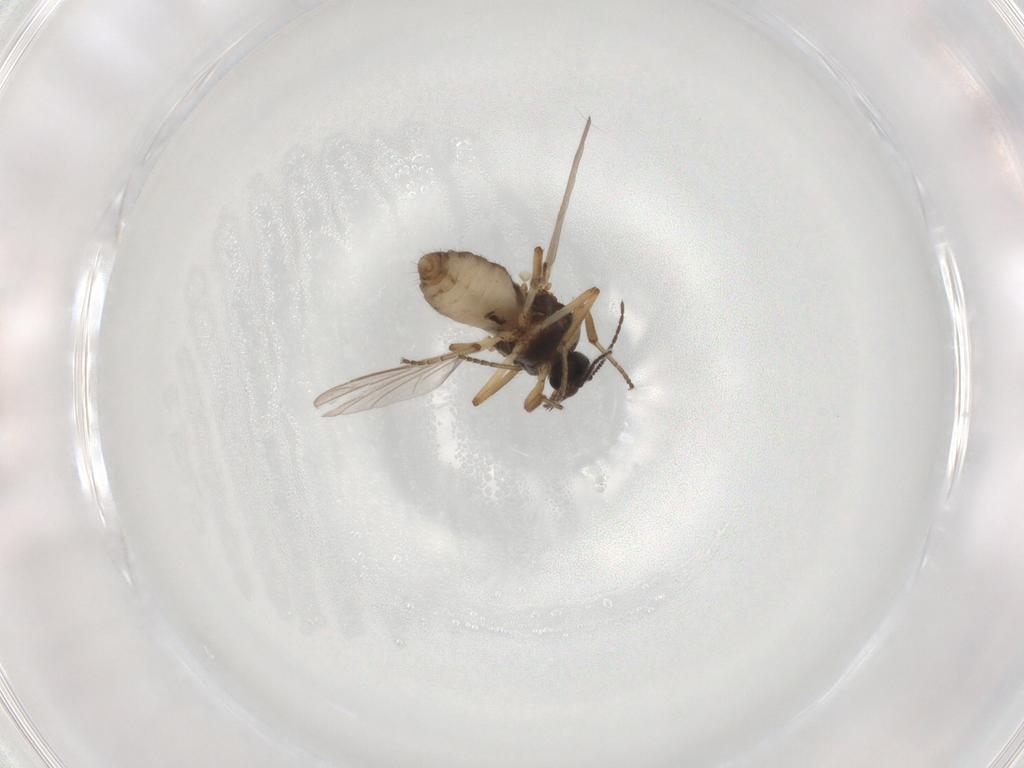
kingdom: Animalia
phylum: Arthropoda
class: Insecta
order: Diptera
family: Ceratopogonidae
